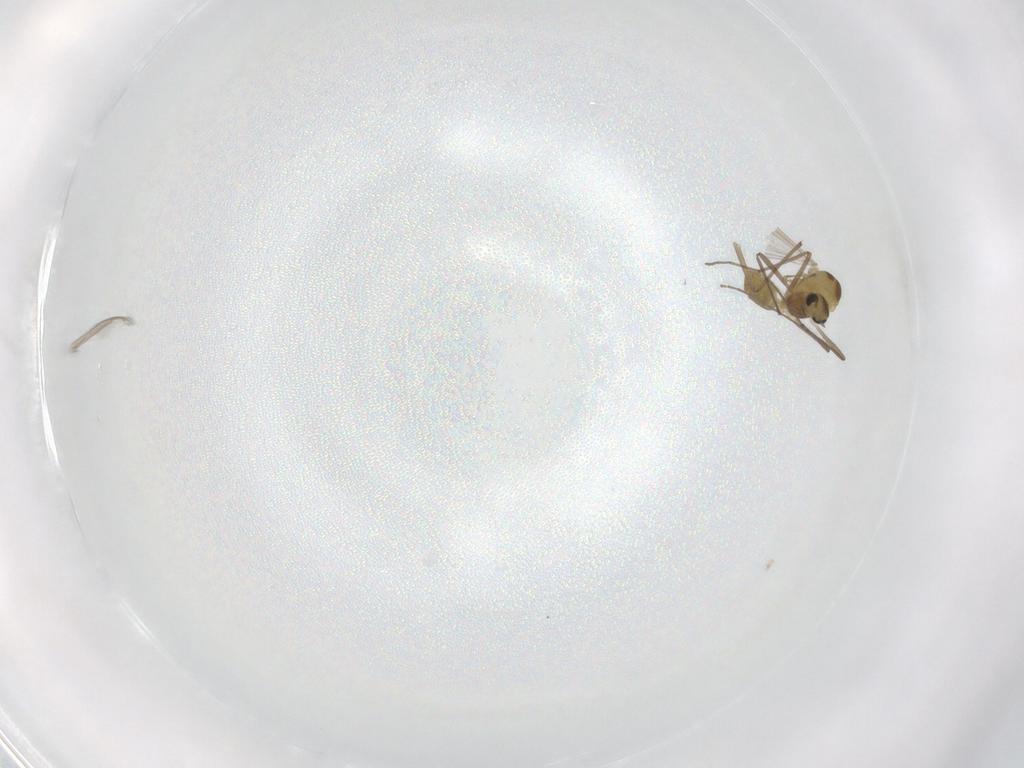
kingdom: Animalia
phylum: Arthropoda
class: Insecta
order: Diptera
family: Chironomidae
